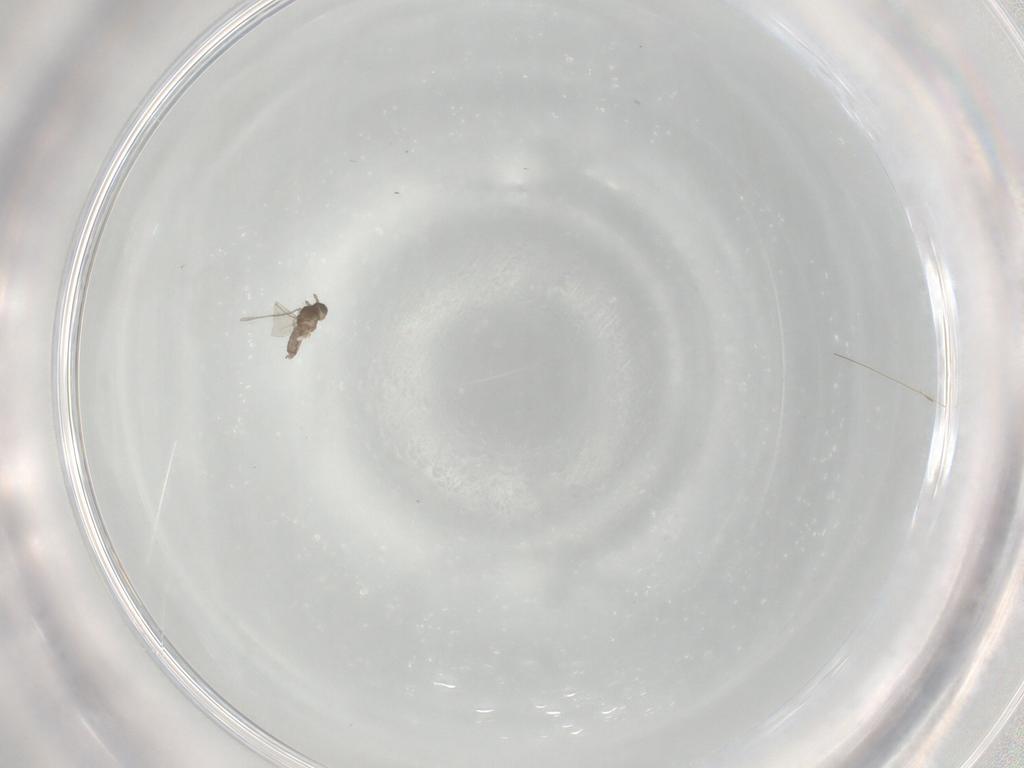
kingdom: Animalia
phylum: Arthropoda
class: Insecta
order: Diptera
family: Cecidomyiidae
